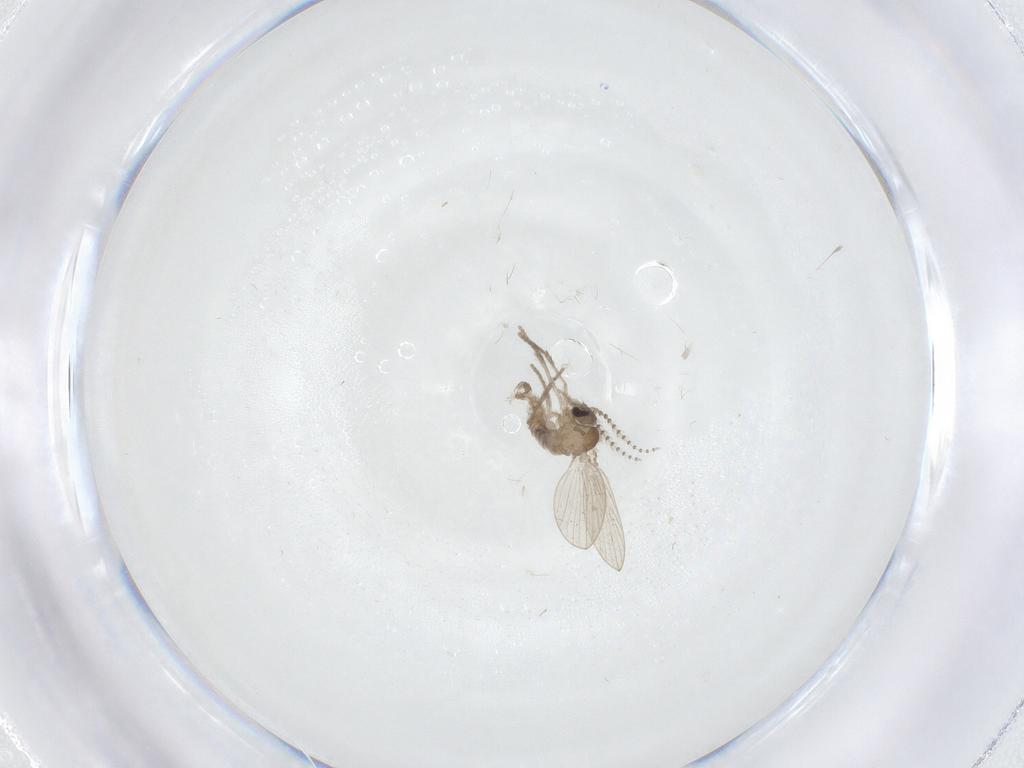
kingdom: Animalia
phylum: Arthropoda
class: Insecta
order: Diptera
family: Psychodidae
